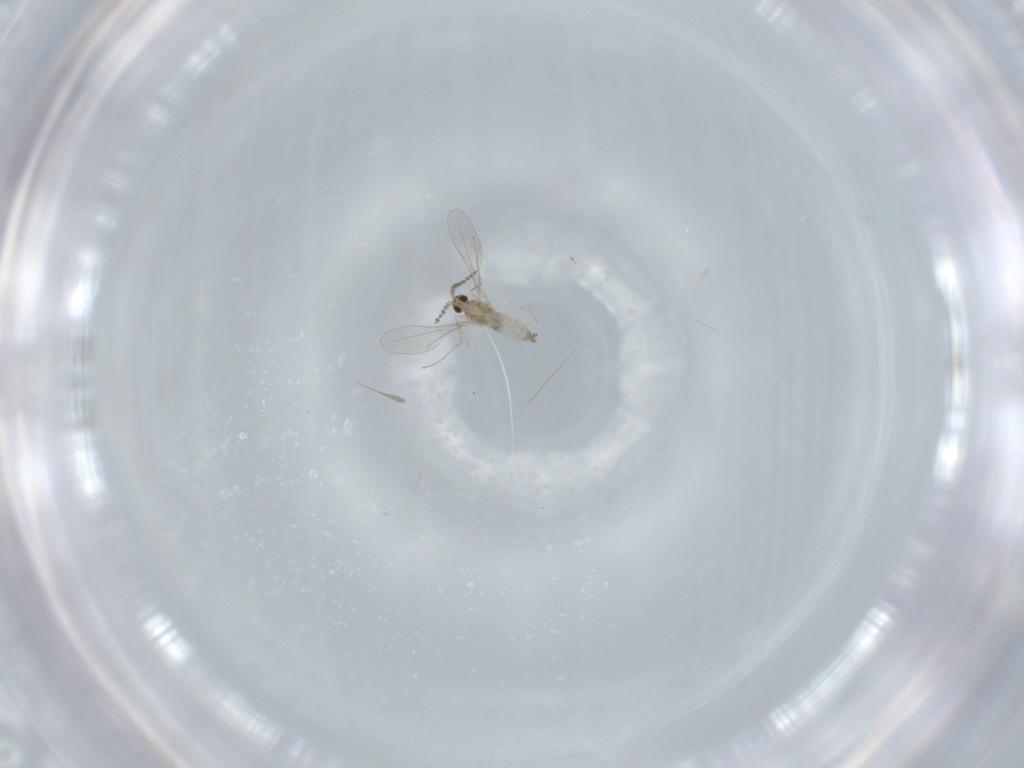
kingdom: Animalia
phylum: Arthropoda
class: Insecta
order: Diptera
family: Cecidomyiidae
